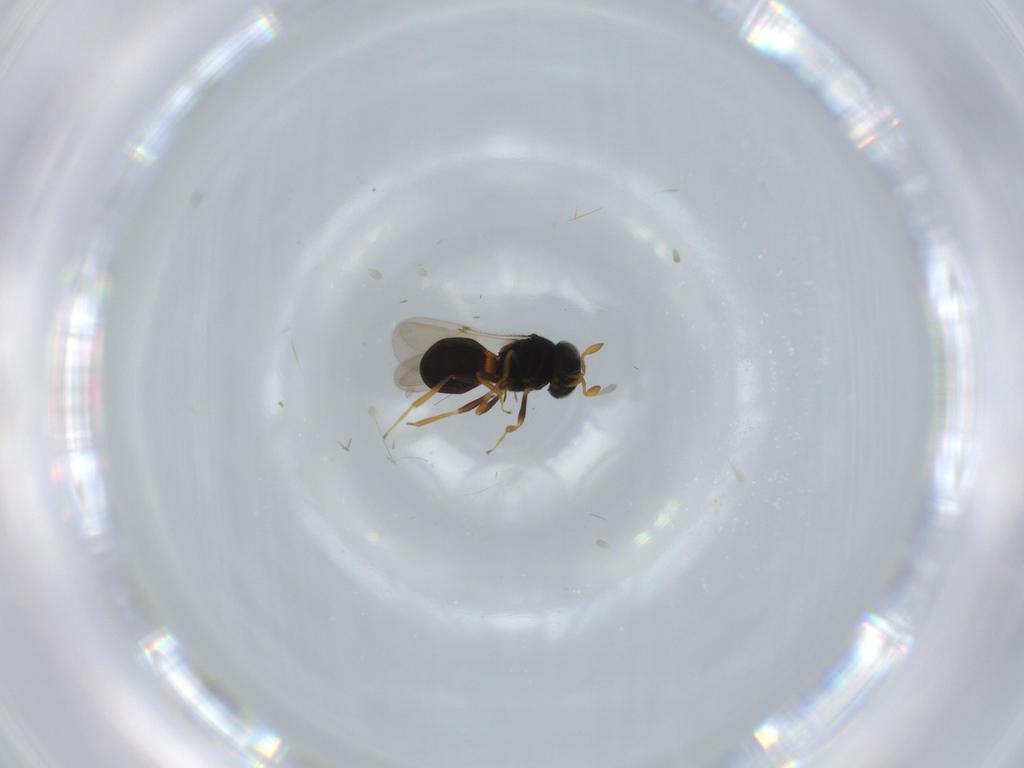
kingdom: Animalia
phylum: Arthropoda
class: Insecta
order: Hymenoptera
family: Scelionidae
